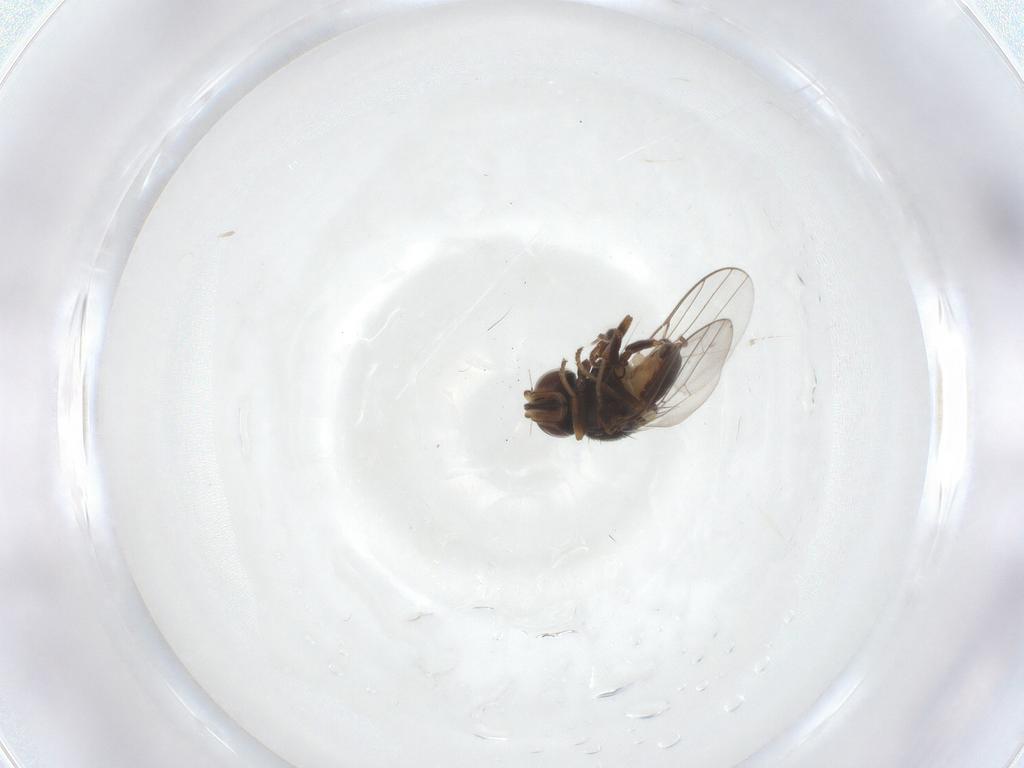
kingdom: Animalia
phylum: Arthropoda
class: Insecta
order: Diptera
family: Chloropidae
